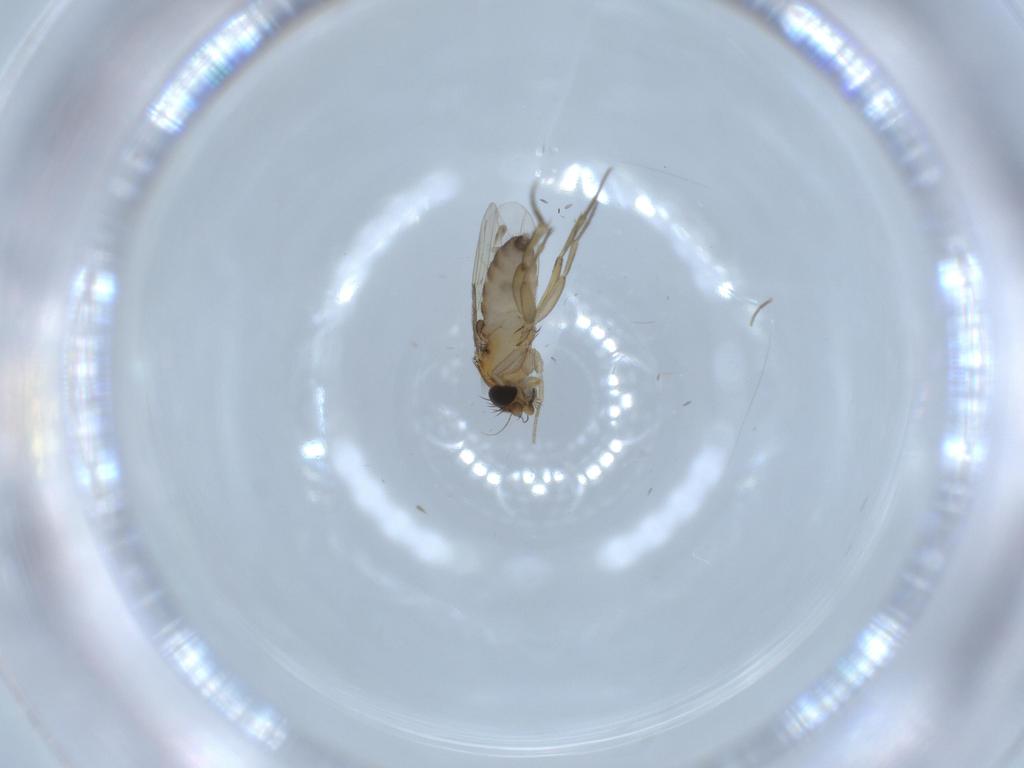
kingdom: Animalia
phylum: Arthropoda
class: Insecta
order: Diptera
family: Phoridae
